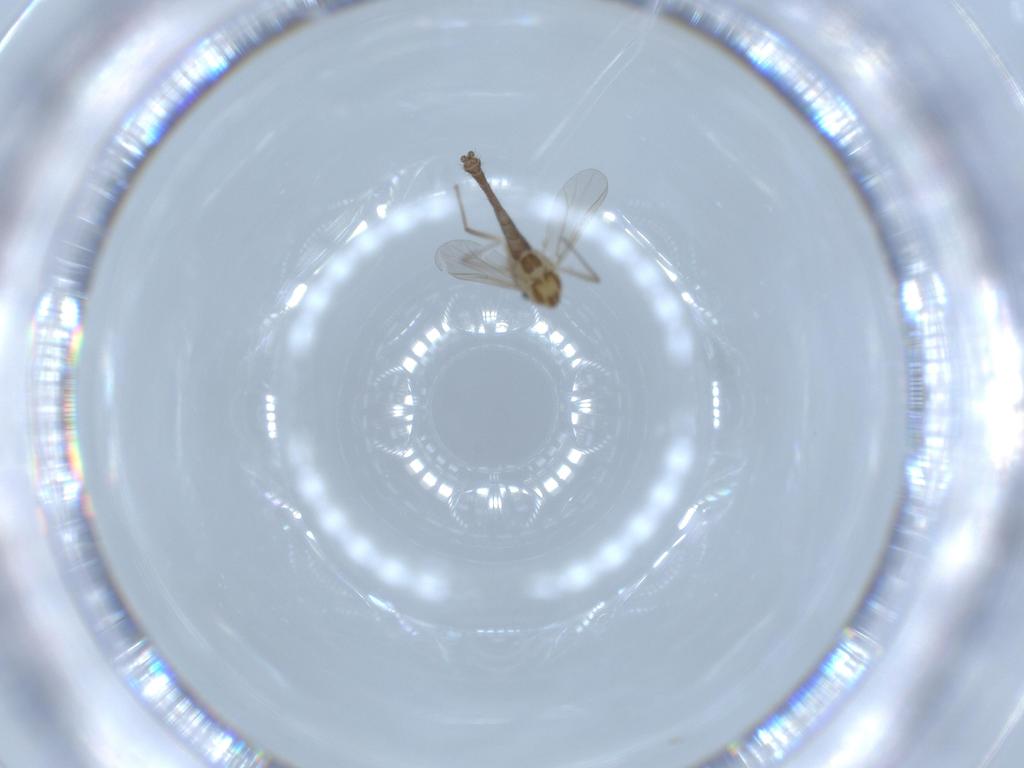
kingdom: Animalia
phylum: Arthropoda
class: Insecta
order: Diptera
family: Chironomidae
